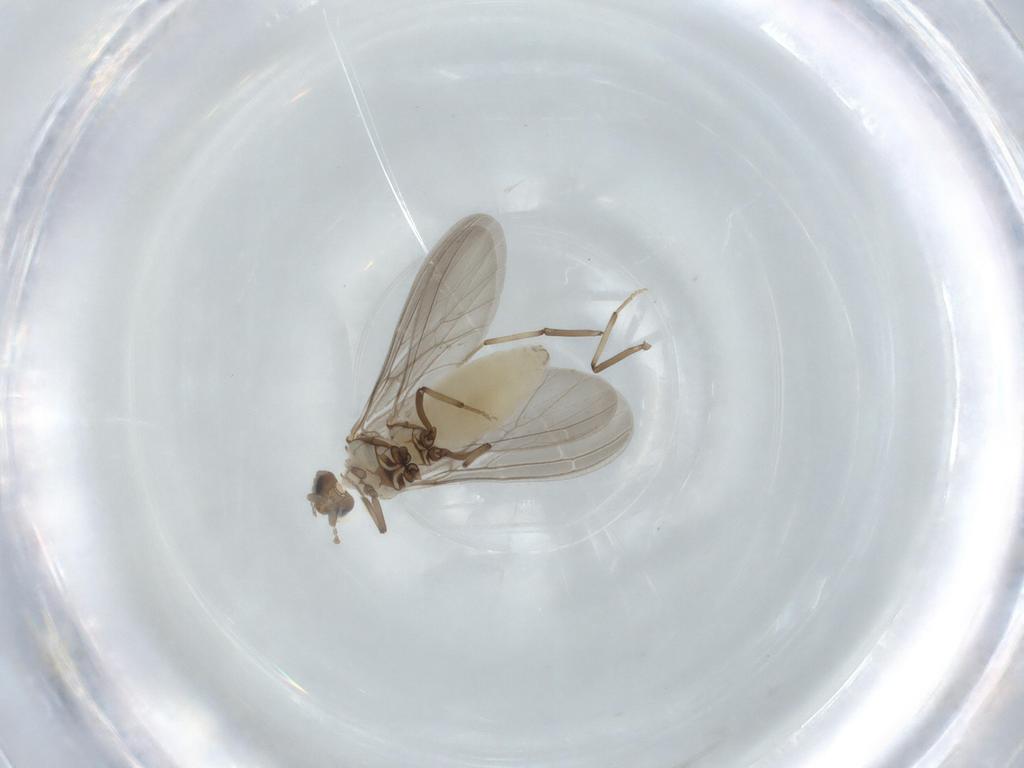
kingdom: Animalia
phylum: Arthropoda
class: Insecta
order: Neuroptera
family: Coniopterygidae
